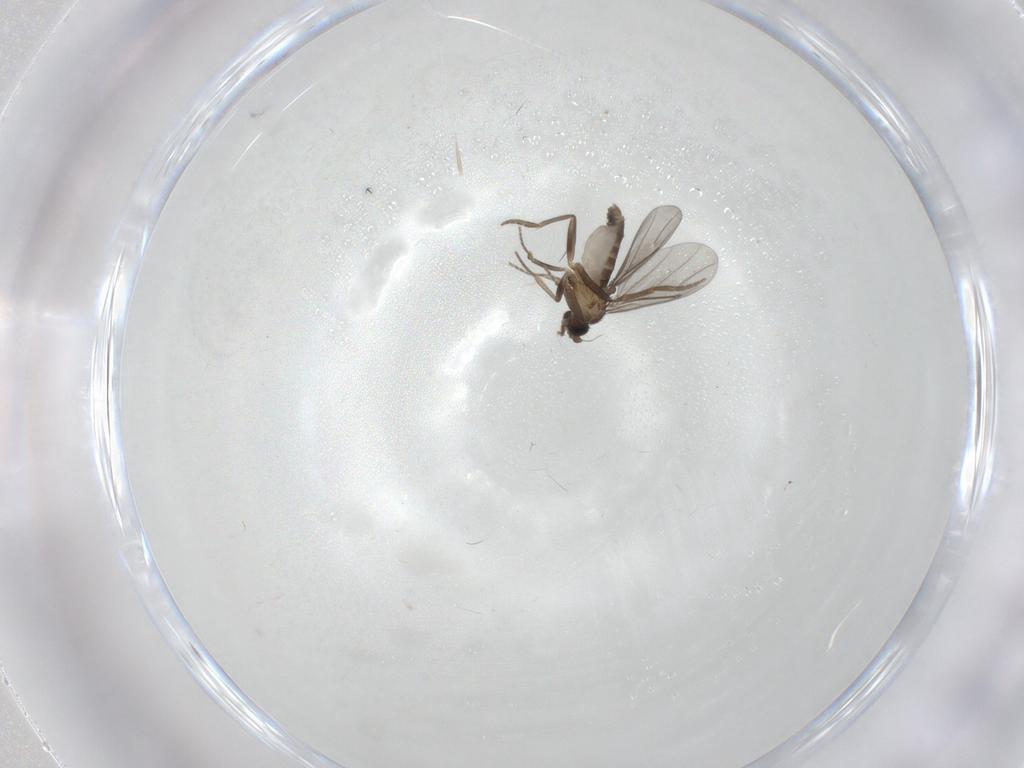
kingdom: Animalia
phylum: Arthropoda
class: Insecta
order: Diptera
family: Phoridae
